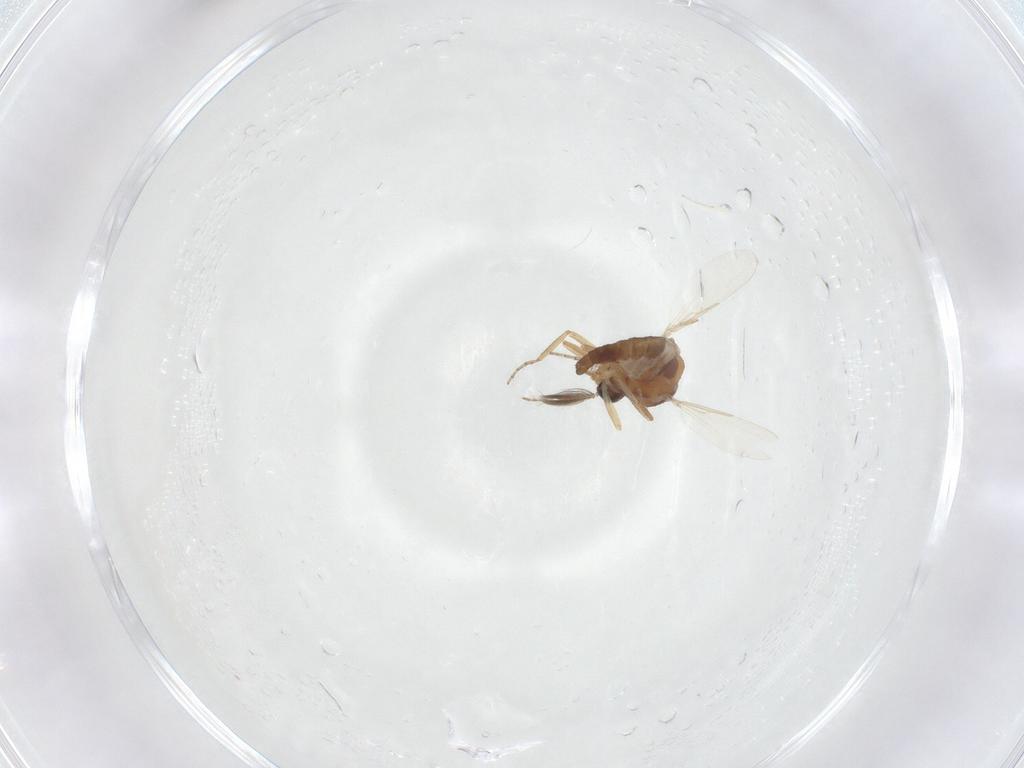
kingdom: Animalia
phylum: Arthropoda
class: Insecta
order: Diptera
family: Ceratopogonidae
